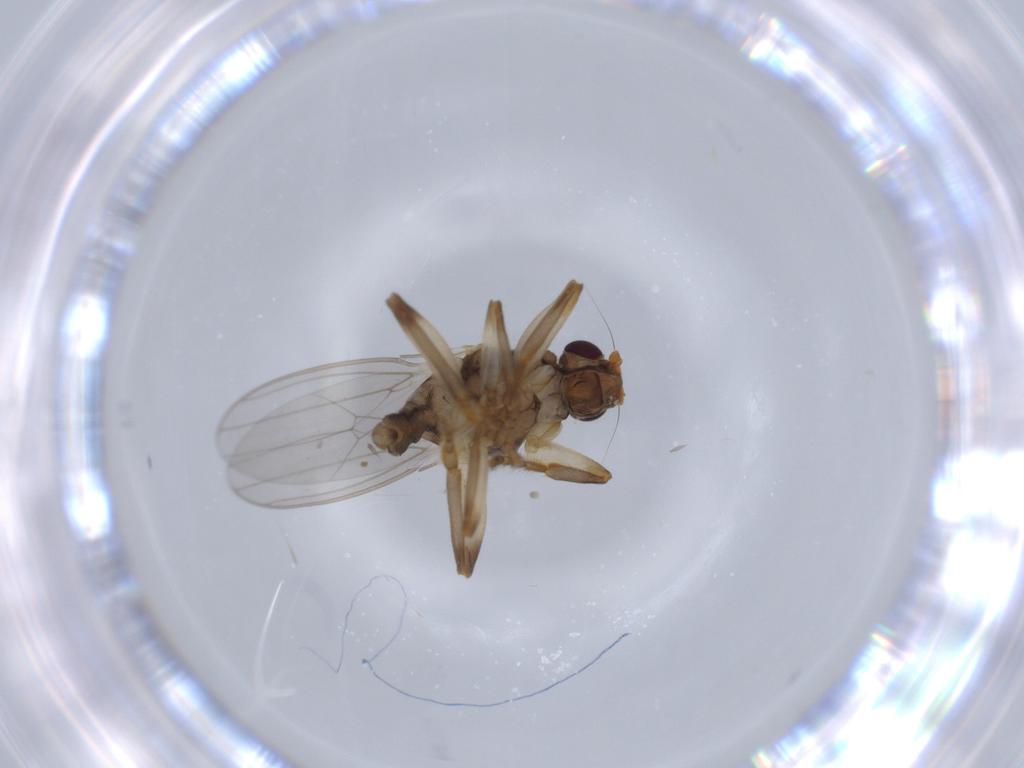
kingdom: Animalia
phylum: Arthropoda
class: Insecta
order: Diptera
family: Sphaeroceridae
